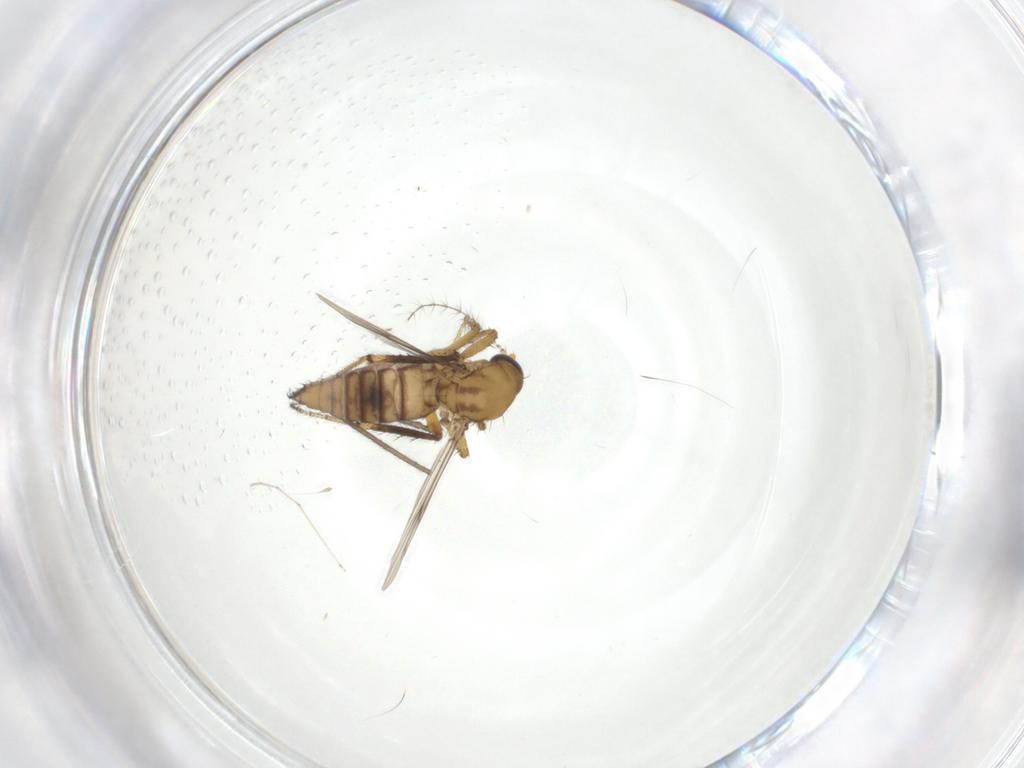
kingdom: Animalia
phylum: Arthropoda
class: Insecta
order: Diptera
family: Ceratopogonidae
